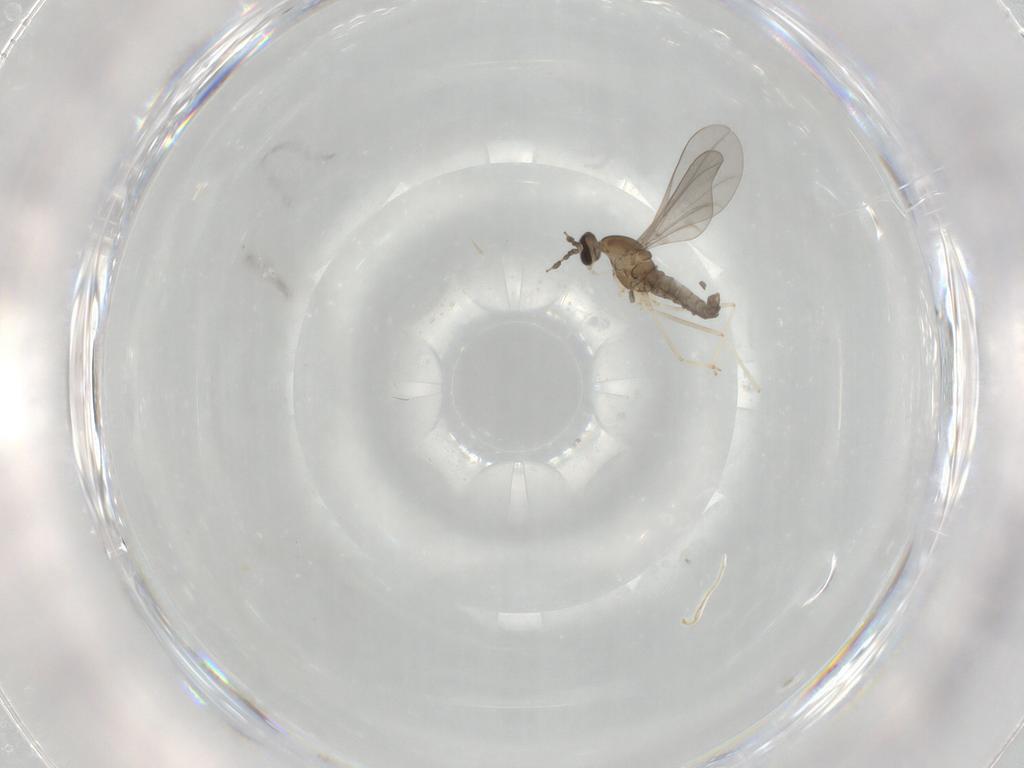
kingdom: Animalia
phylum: Arthropoda
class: Insecta
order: Diptera
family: Cecidomyiidae
